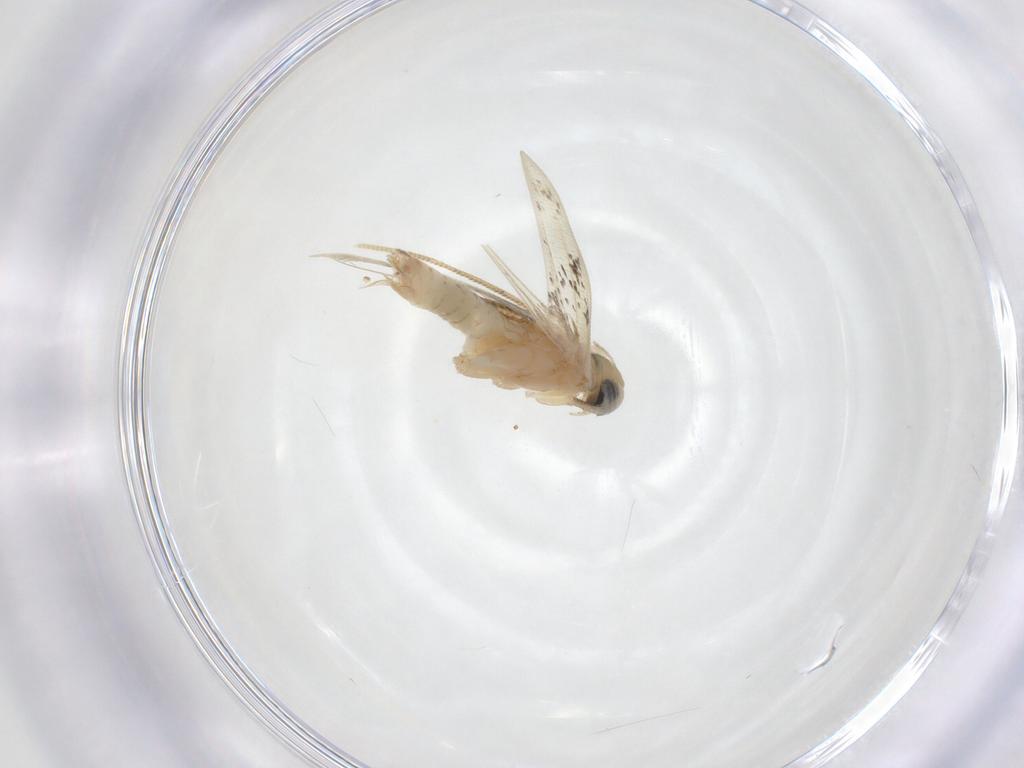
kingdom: Animalia
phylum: Arthropoda
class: Insecta
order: Lepidoptera
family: Opostegidae
